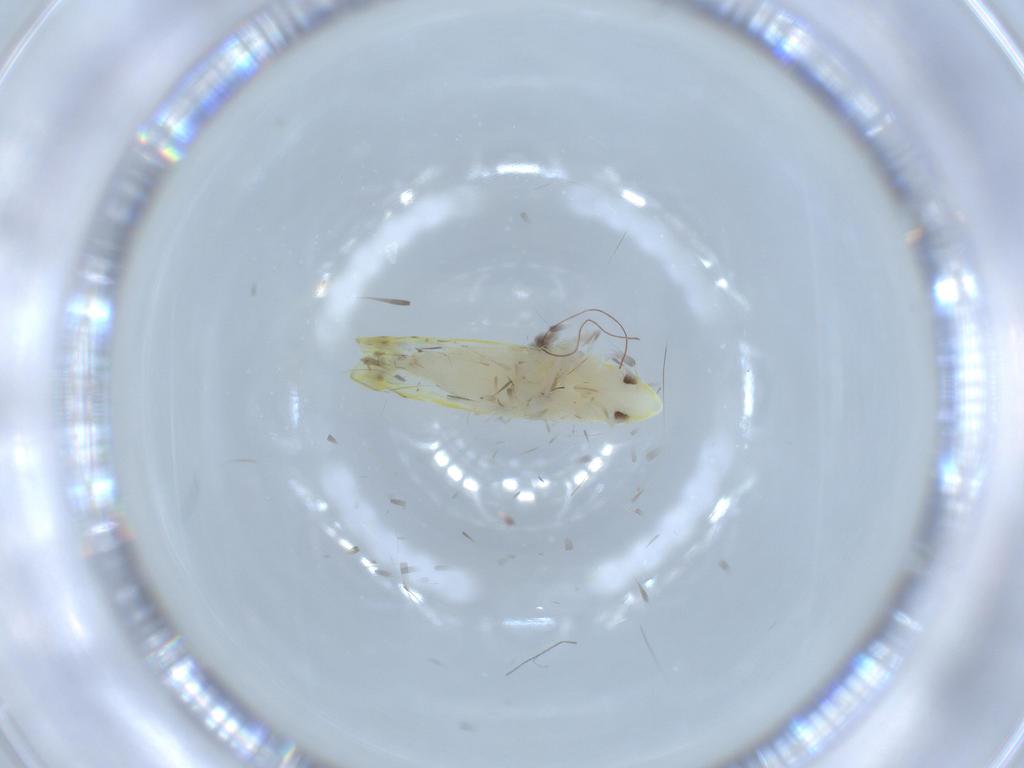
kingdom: Animalia
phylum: Arthropoda
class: Insecta
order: Hemiptera
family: Cicadellidae
